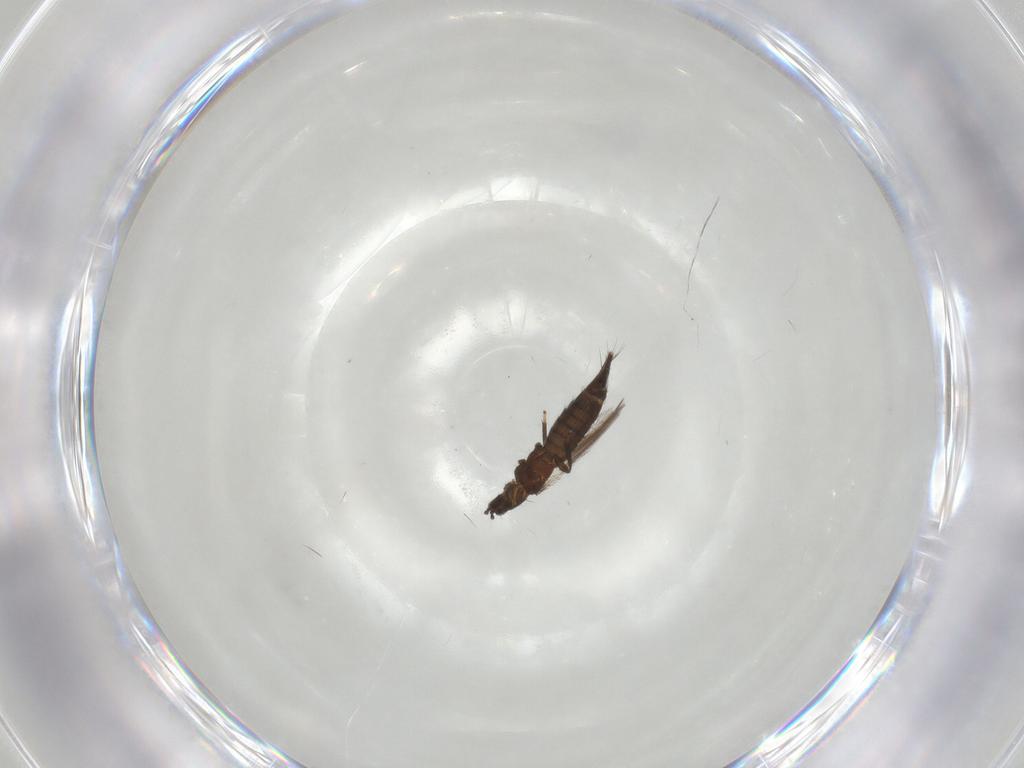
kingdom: Animalia
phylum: Arthropoda
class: Insecta
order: Thysanoptera
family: Thripidae
